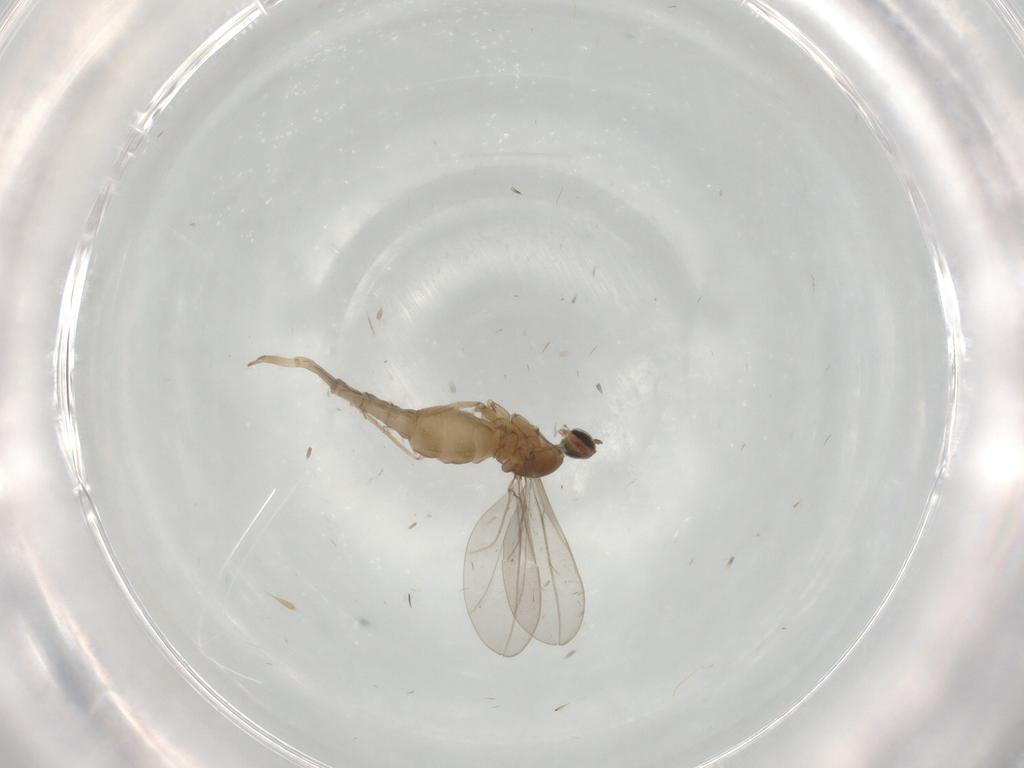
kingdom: Animalia
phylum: Arthropoda
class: Insecta
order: Diptera
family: Cecidomyiidae
